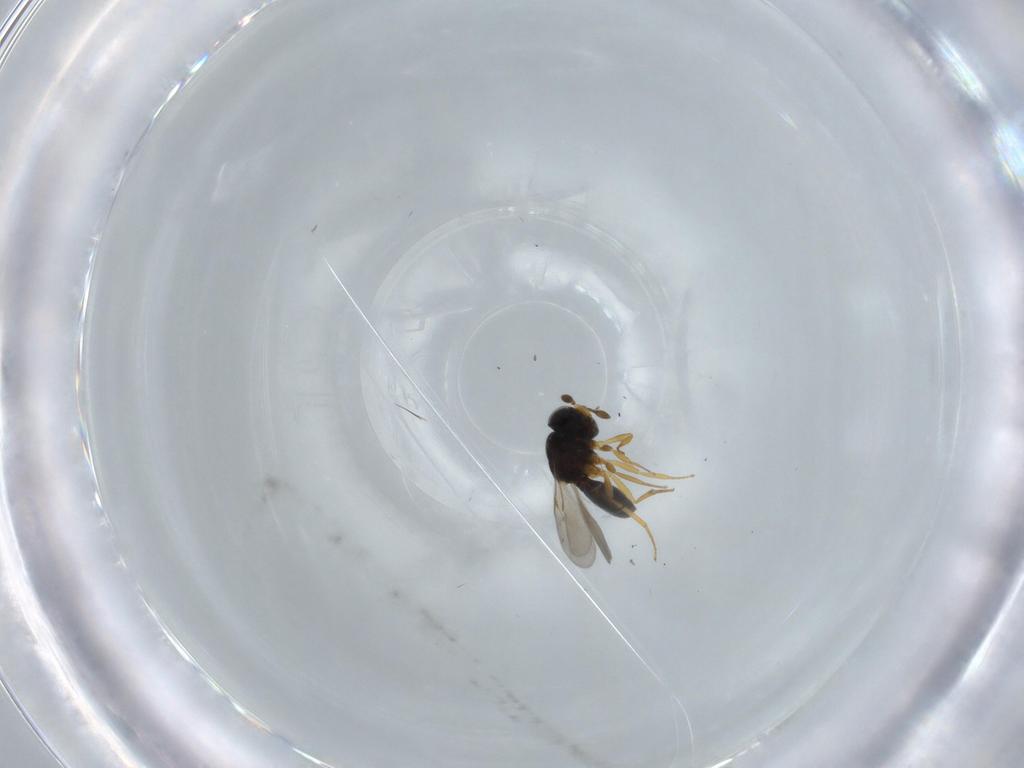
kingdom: Animalia
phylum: Arthropoda
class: Insecta
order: Hymenoptera
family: Scelionidae
